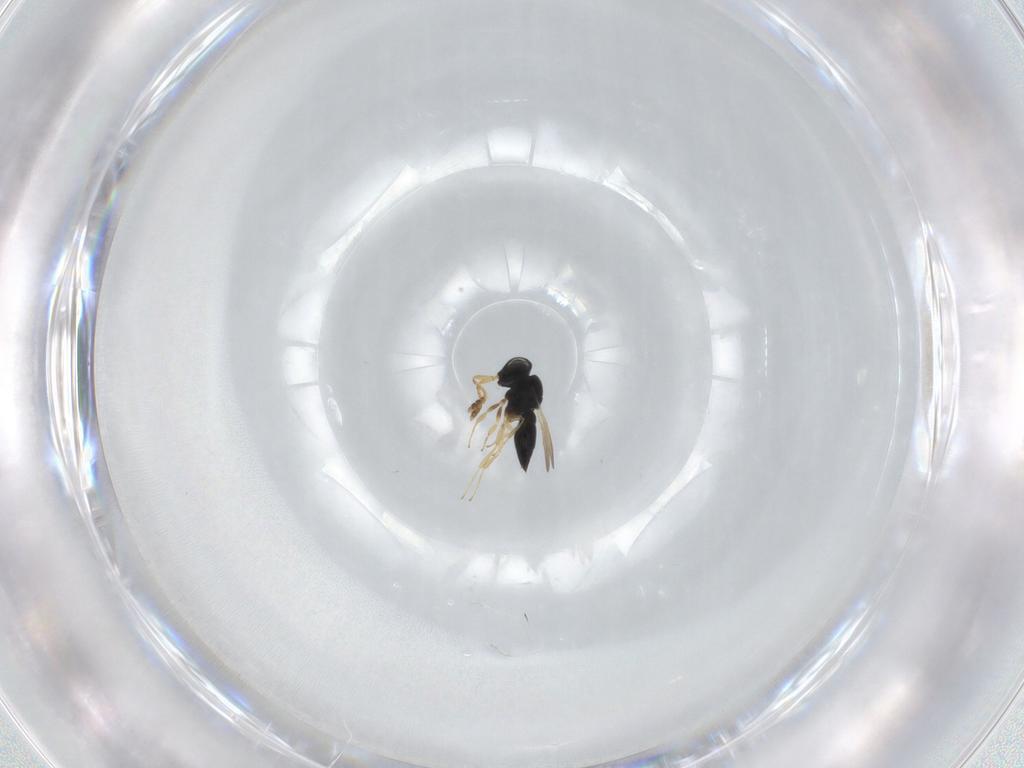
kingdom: Animalia
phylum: Arthropoda
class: Insecta
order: Hymenoptera
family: Scelionidae
